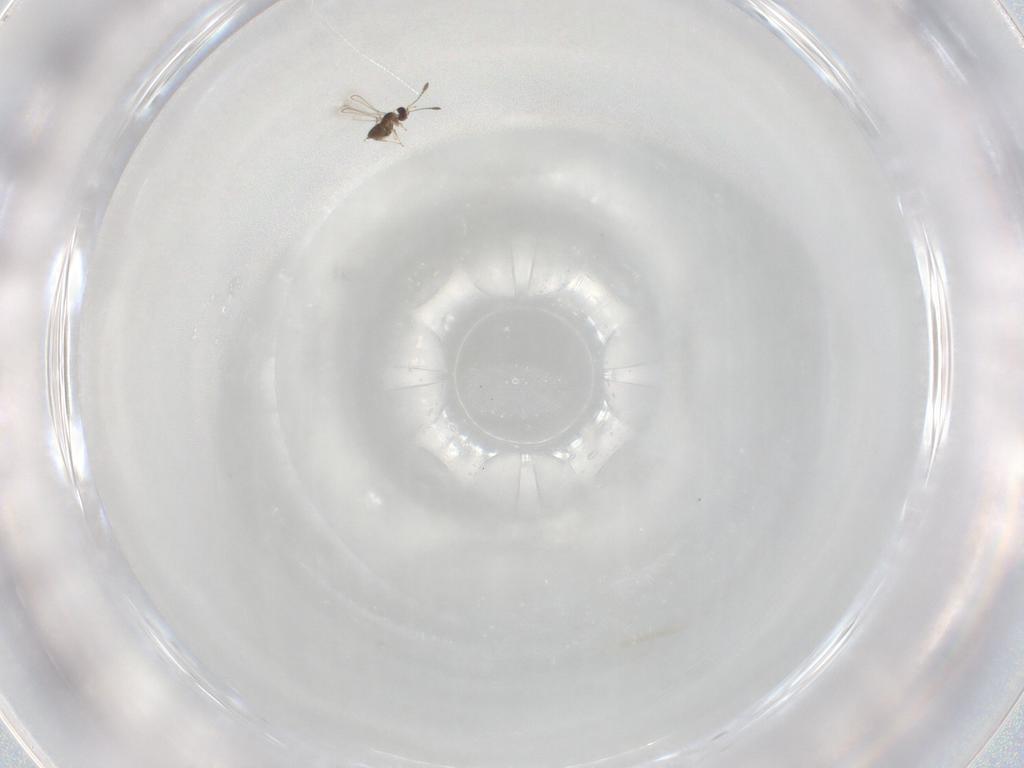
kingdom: Animalia
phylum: Arthropoda
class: Insecta
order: Hymenoptera
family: Mymaridae
